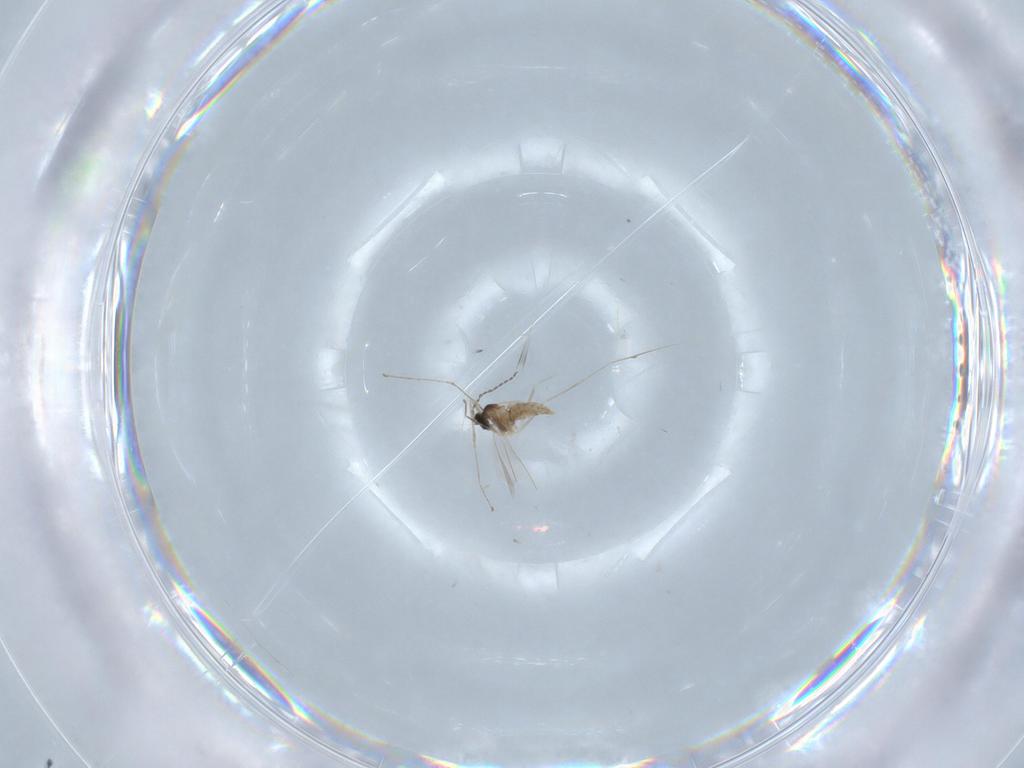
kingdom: Animalia
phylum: Arthropoda
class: Insecta
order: Diptera
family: Cecidomyiidae
